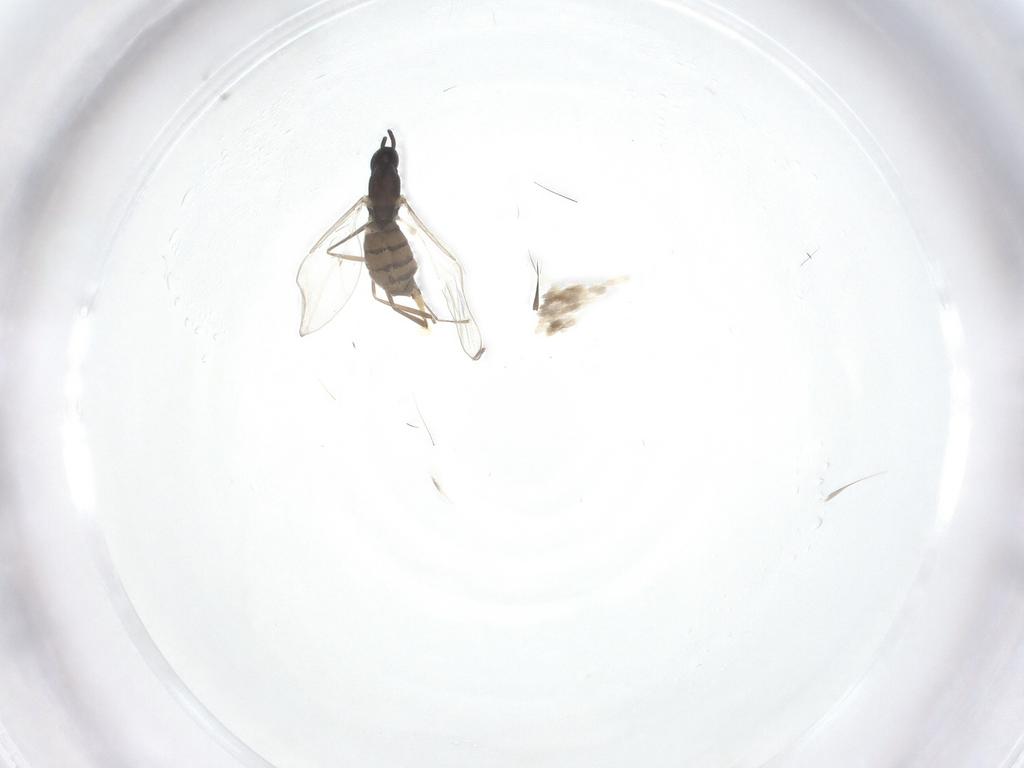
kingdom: Animalia
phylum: Arthropoda
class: Insecta
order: Diptera
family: Cecidomyiidae
